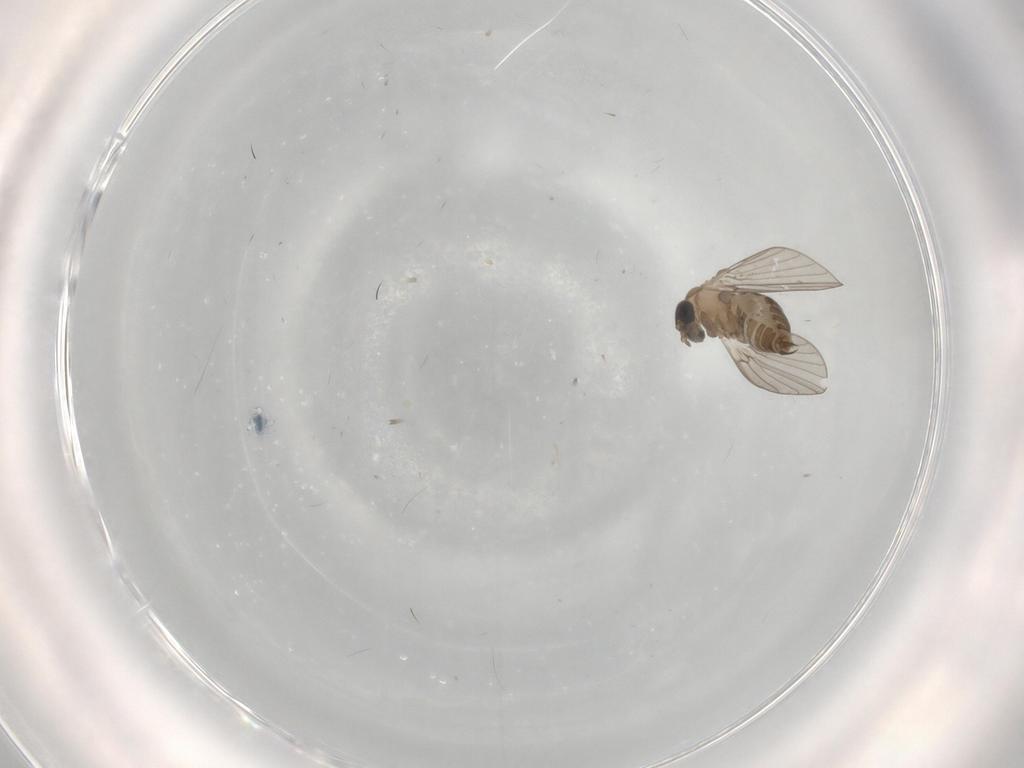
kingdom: Animalia
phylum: Arthropoda
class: Insecta
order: Diptera
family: Psychodidae
